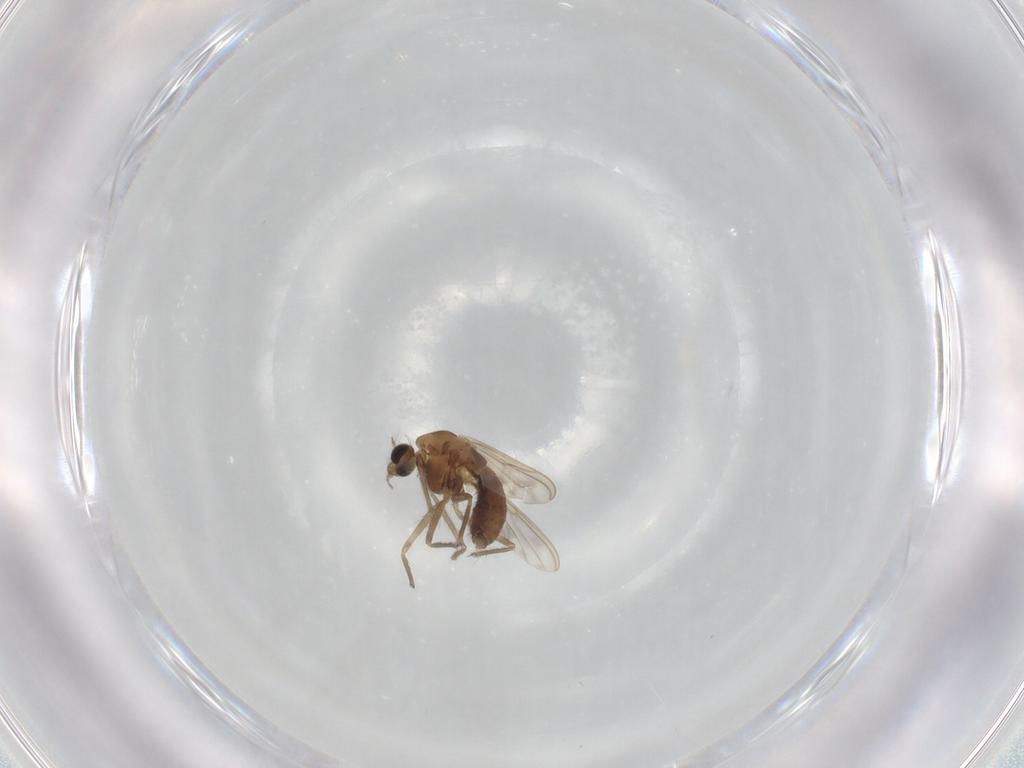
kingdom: Animalia
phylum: Arthropoda
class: Insecta
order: Diptera
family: Chironomidae
